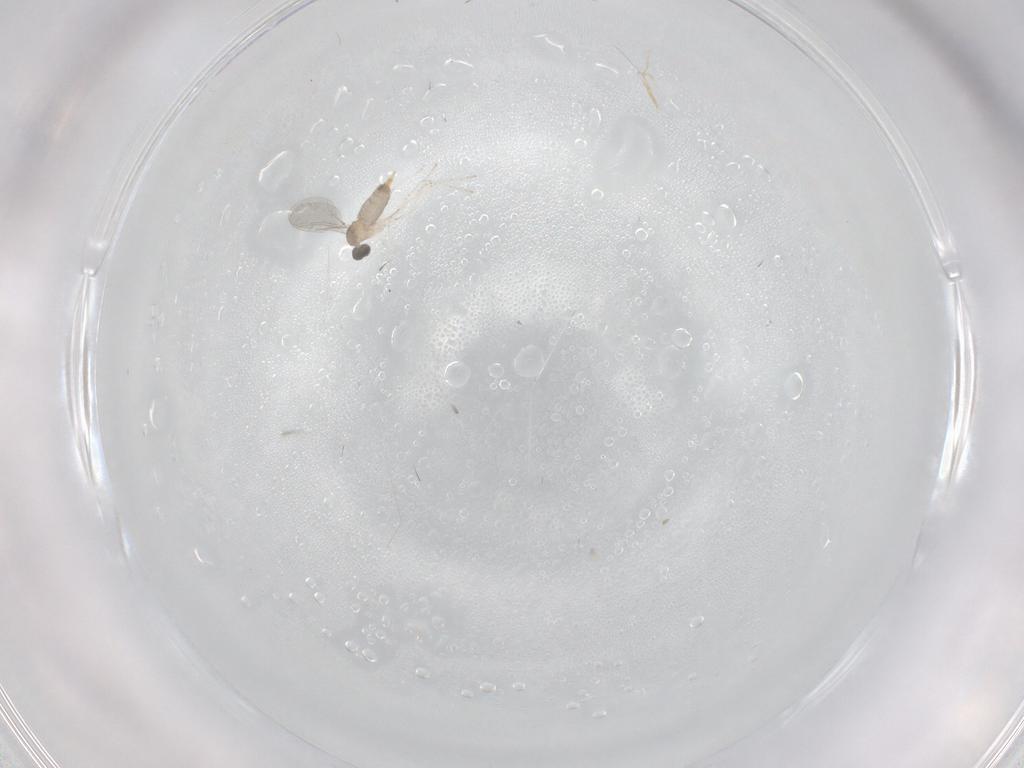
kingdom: Animalia
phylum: Arthropoda
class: Insecta
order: Diptera
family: Cecidomyiidae
